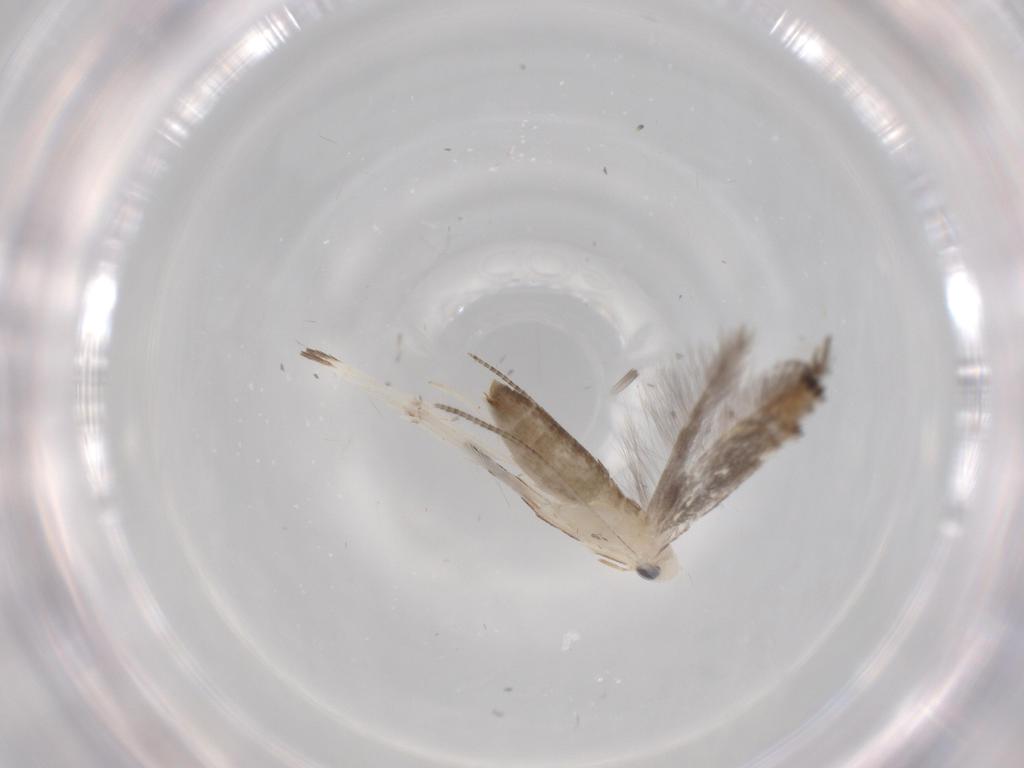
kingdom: Animalia
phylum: Arthropoda
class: Insecta
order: Lepidoptera
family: Nepticulidae
